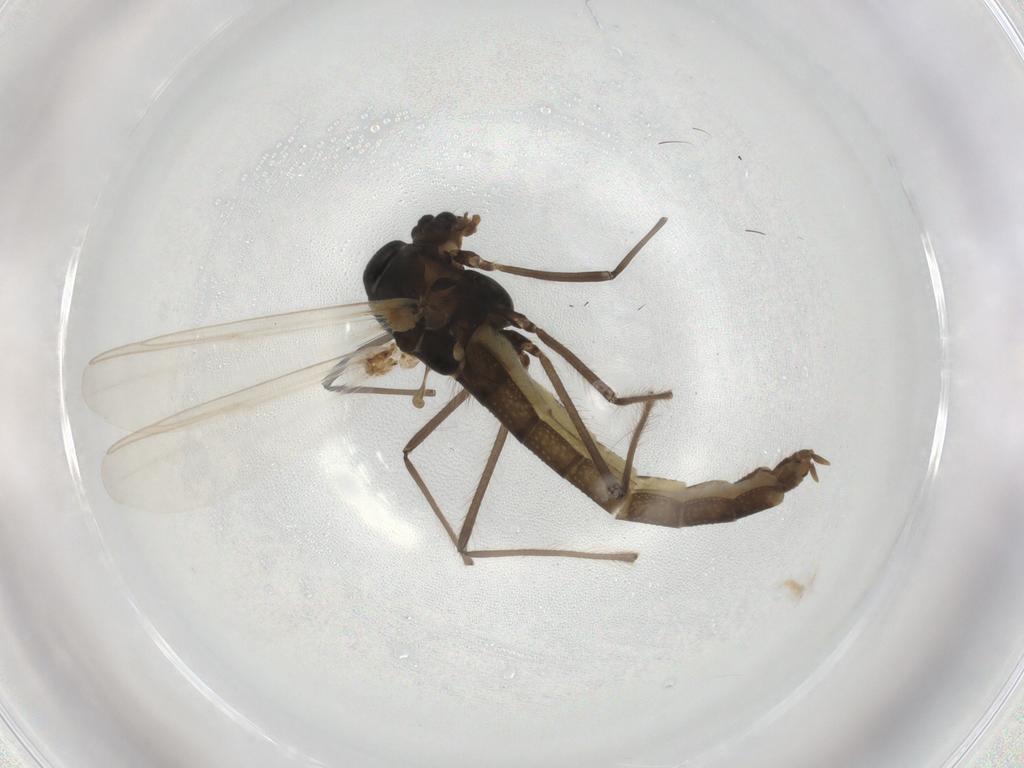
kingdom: Animalia
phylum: Arthropoda
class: Insecta
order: Diptera
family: Chironomidae
